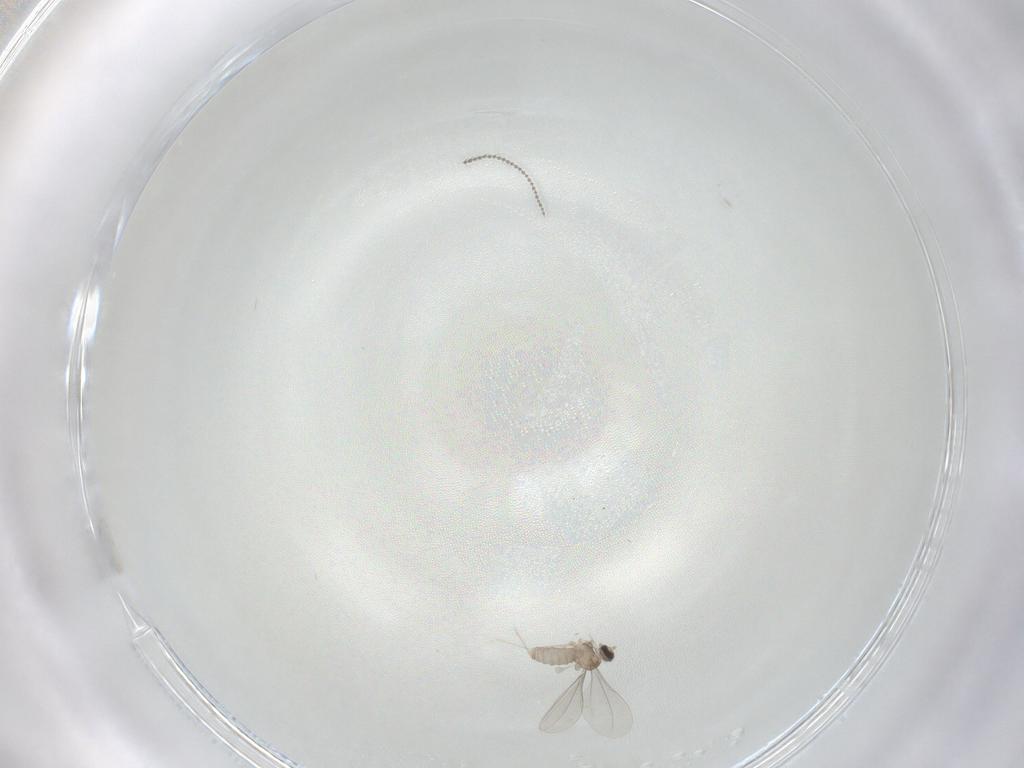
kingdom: Animalia
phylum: Arthropoda
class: Insecta
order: Diptera
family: Cecidomyiidae
